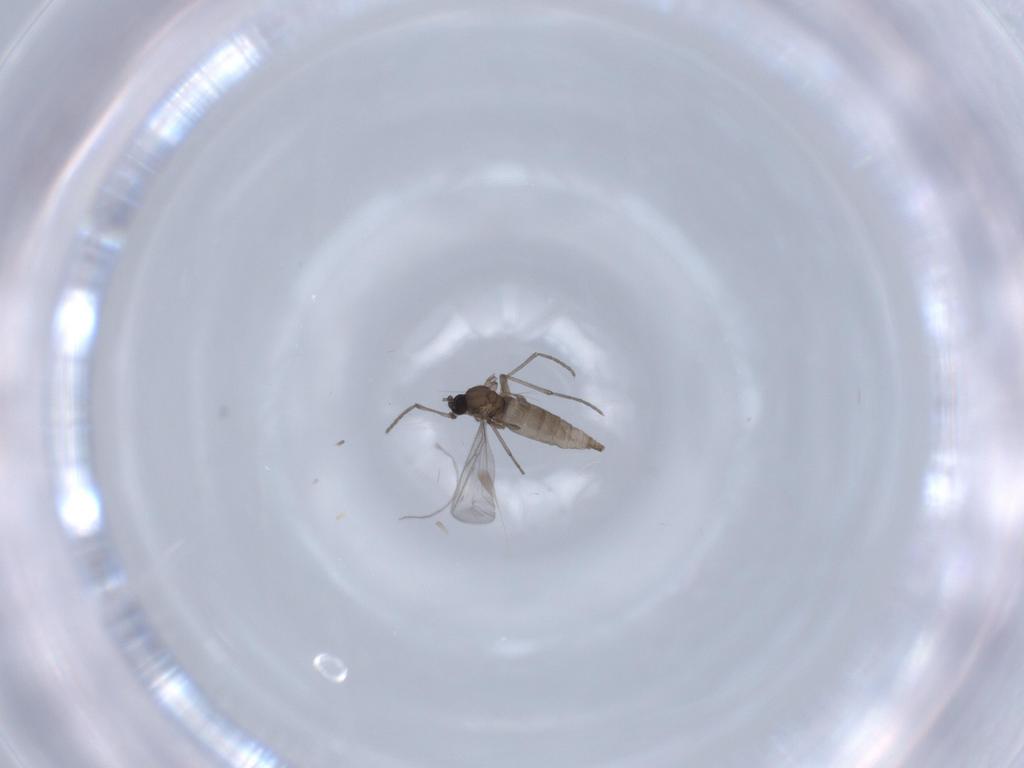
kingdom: Animalia
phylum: Arthropoda
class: Insecta
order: Diptera
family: Sciaridae
